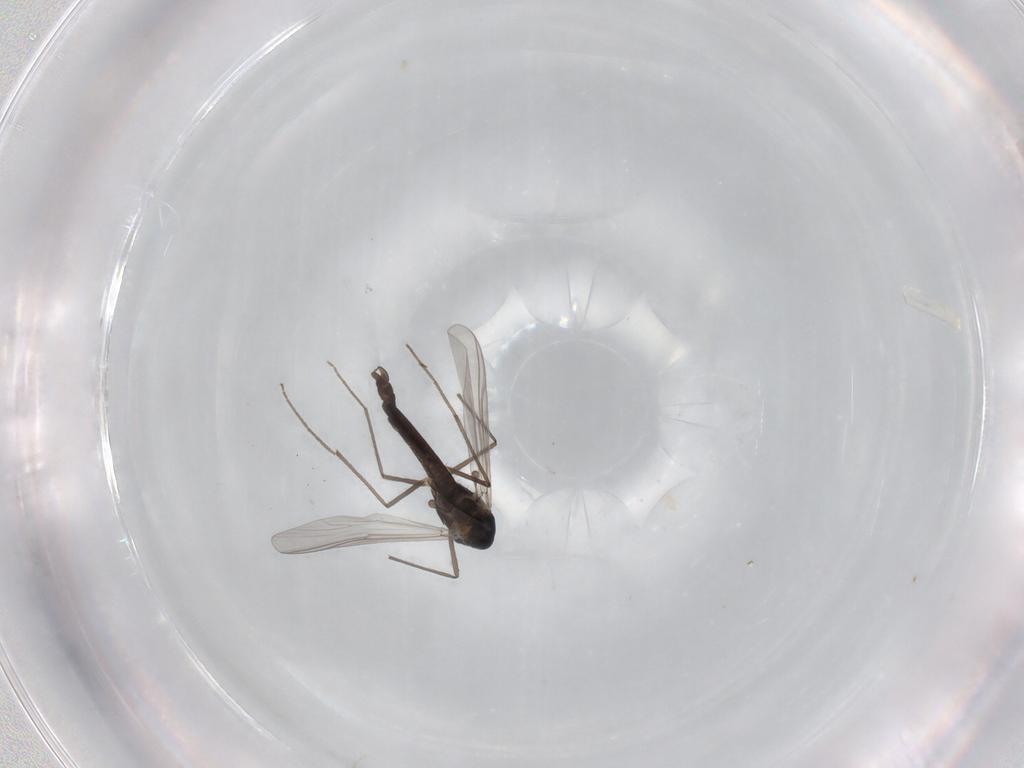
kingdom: Animalia
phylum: Arthropoda
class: Insecta
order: Diptera
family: Chironomidae
